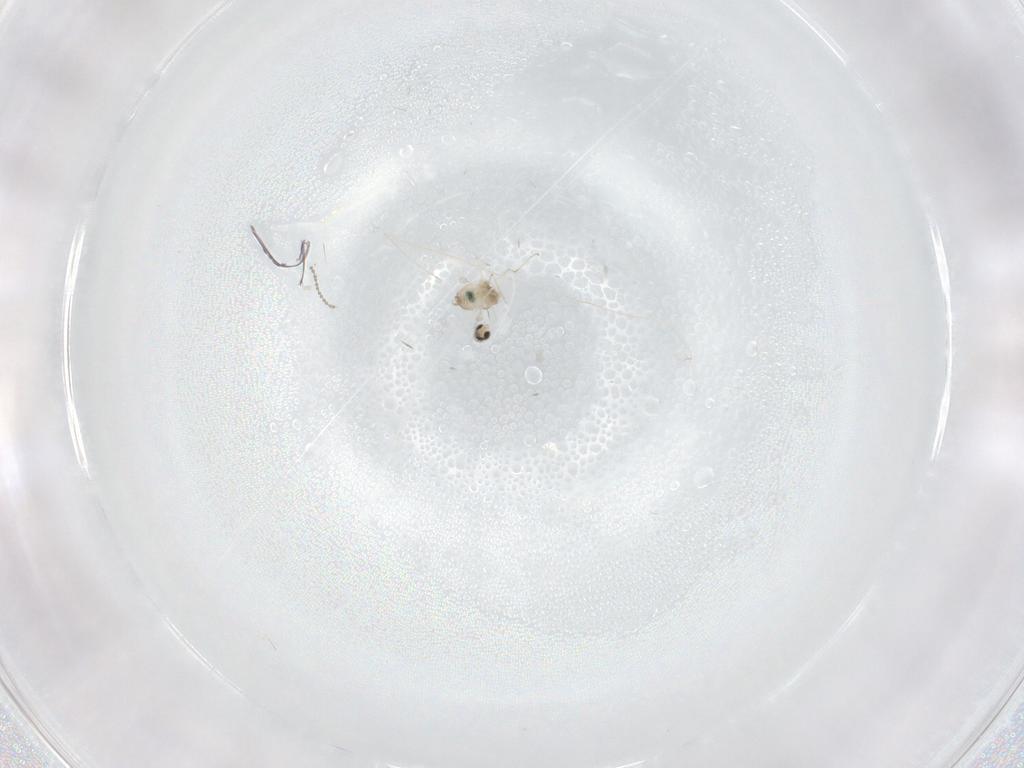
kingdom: Animalia
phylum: Arthropoda
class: Insecta
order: Diptera
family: Cecidomyiidae
